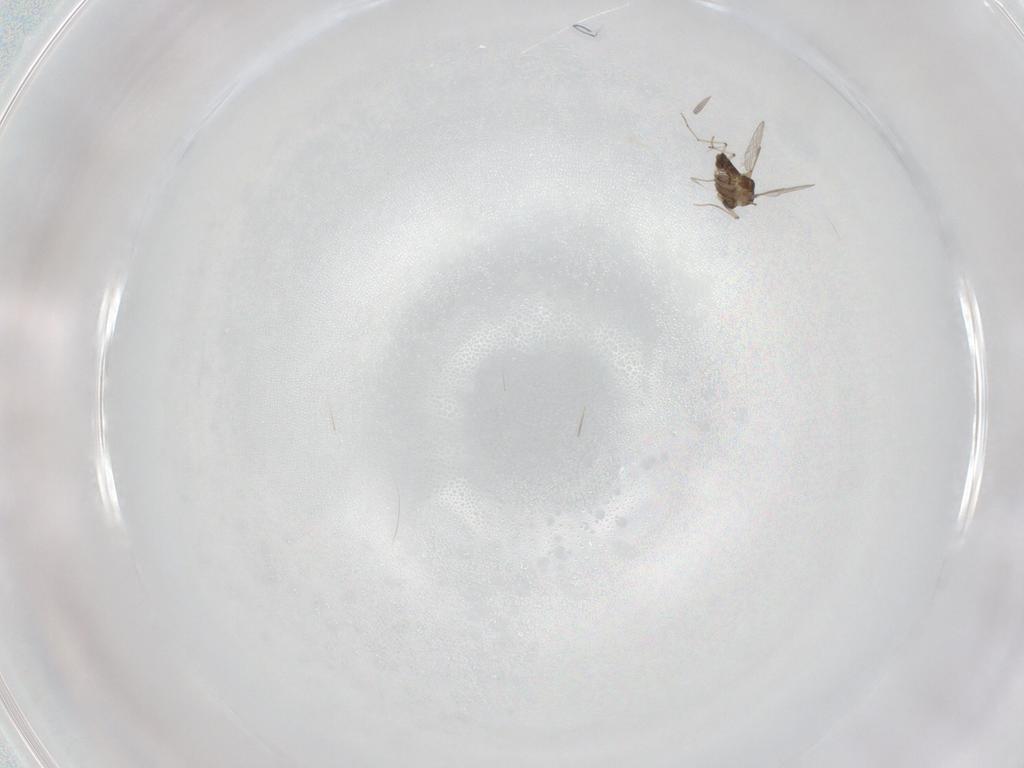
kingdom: Animalia
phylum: Arthropoda
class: Insecta
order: Diptera
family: Chironomidae
